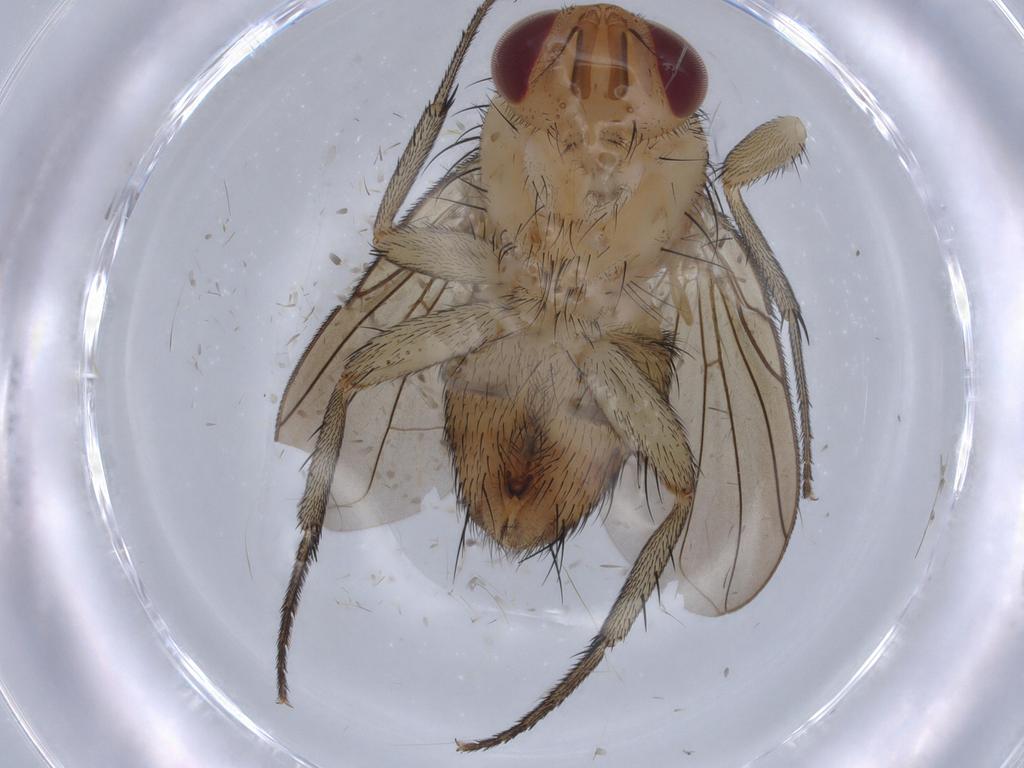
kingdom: Animalia
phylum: Arthropoda
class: Insecta
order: Diptera
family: Calliphoridae
